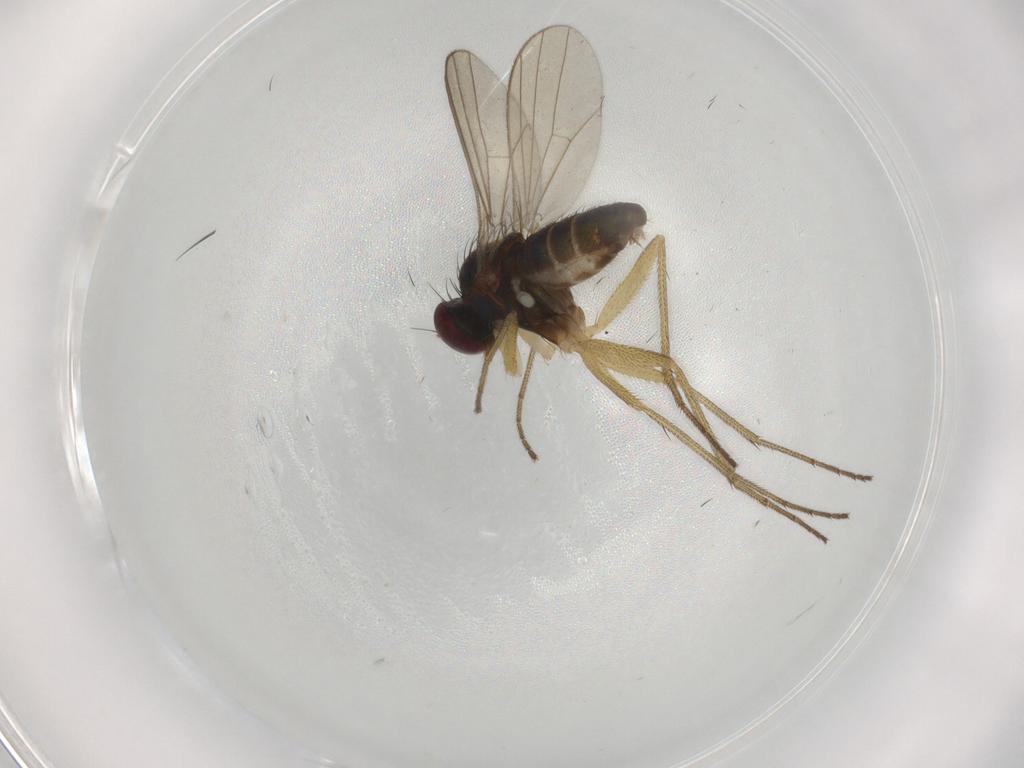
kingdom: Animalia
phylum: Arthropoda
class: Insecta
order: Diptera
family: Dolichopodidae
